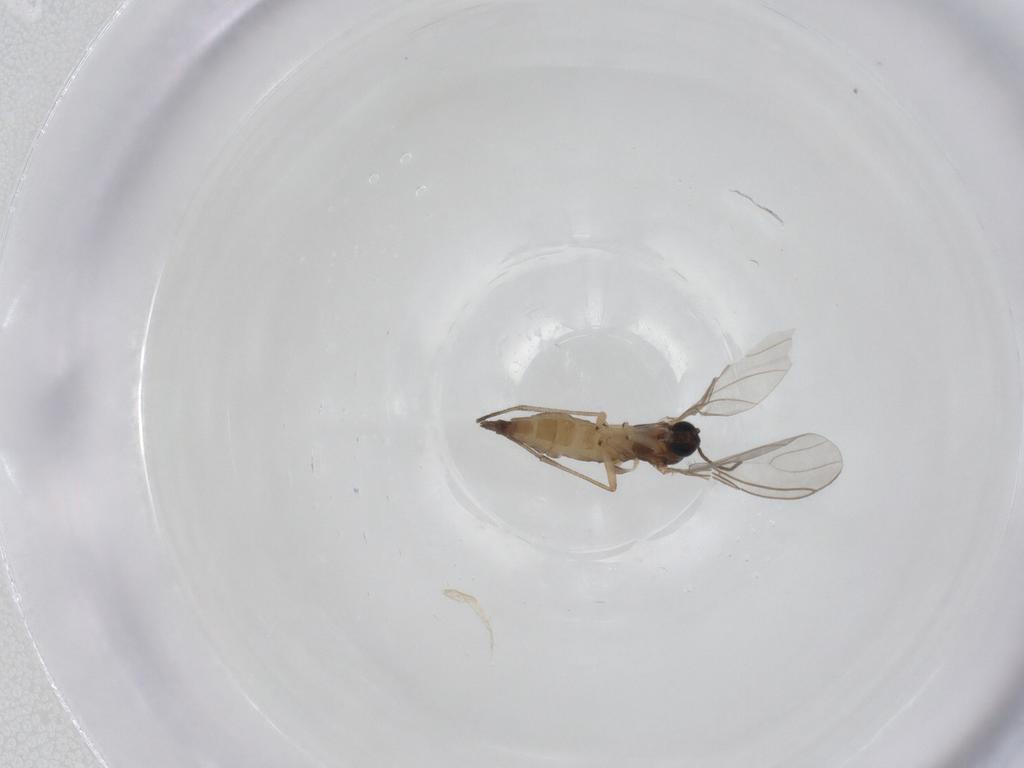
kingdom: Animalia
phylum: Arthropoda
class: Insecta
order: Diptera
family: Sciaridae
